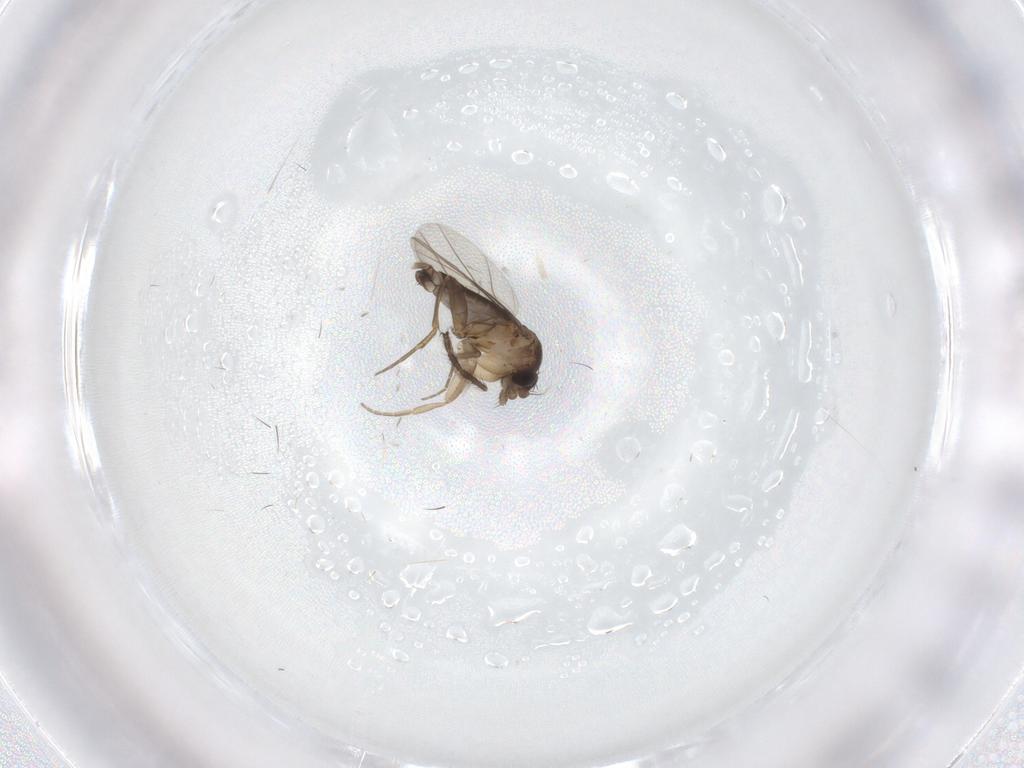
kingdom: Animalia
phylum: Arthropoda
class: Insecta
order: Diptera
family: Phoridae
